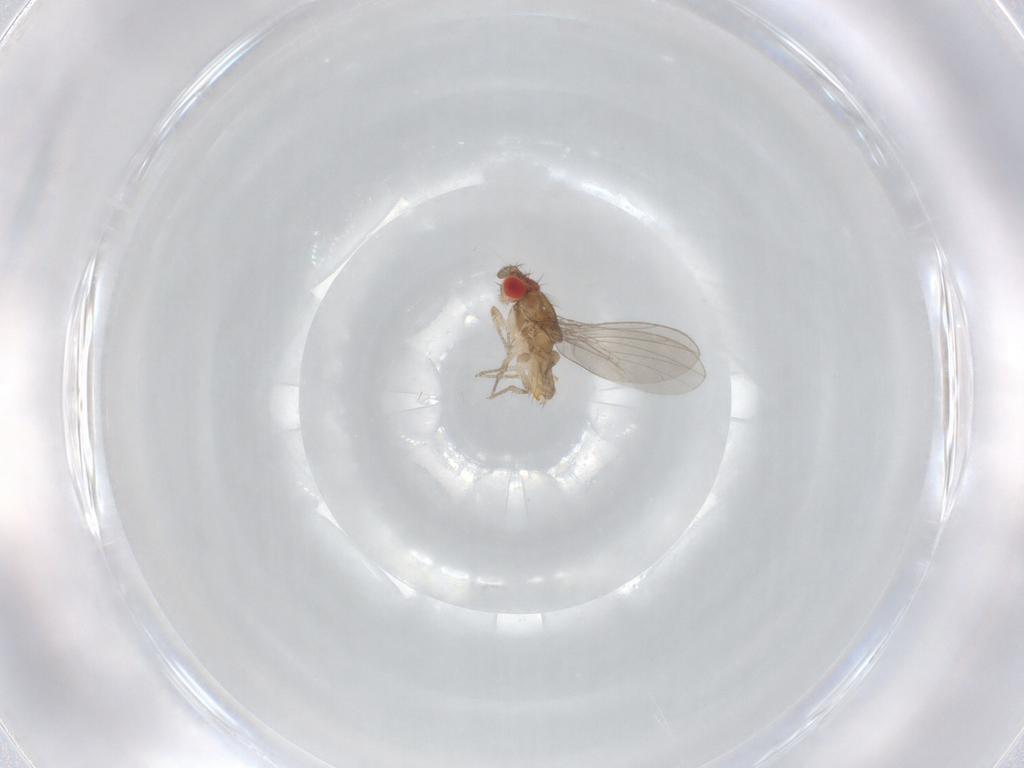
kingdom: Animalia
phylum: Arthropoda
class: Insecta
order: Diptera
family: Drosophilidae
